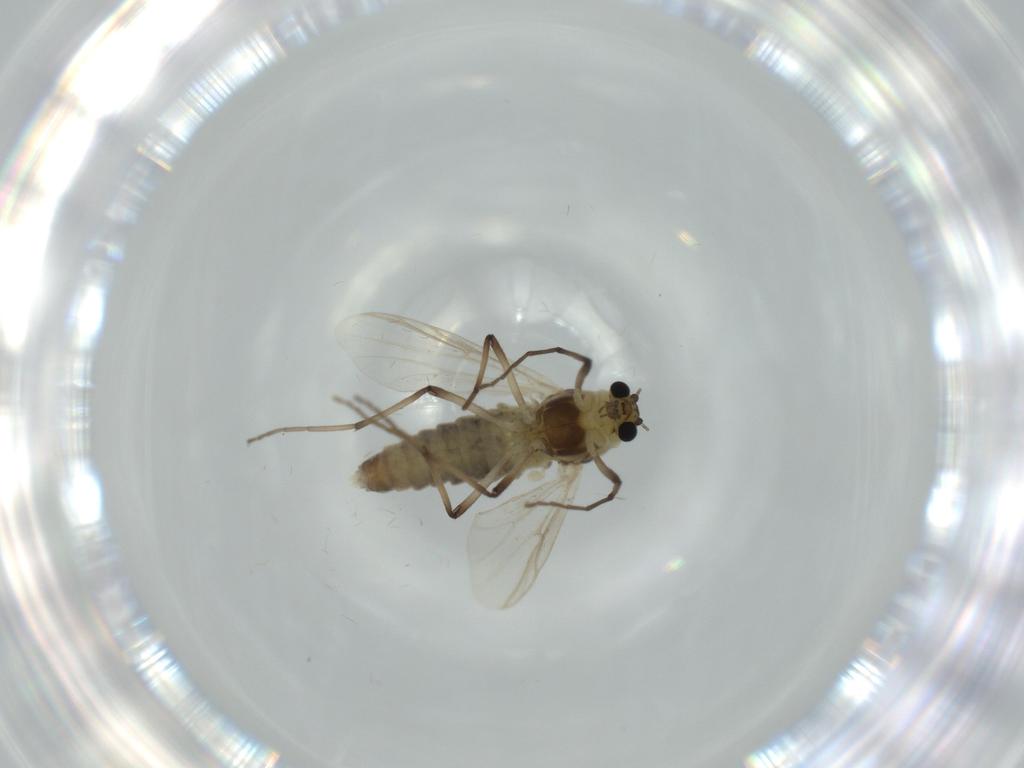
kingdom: Animalia
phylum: Arthropoda
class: Insecta
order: Diptera
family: Chironomidae
